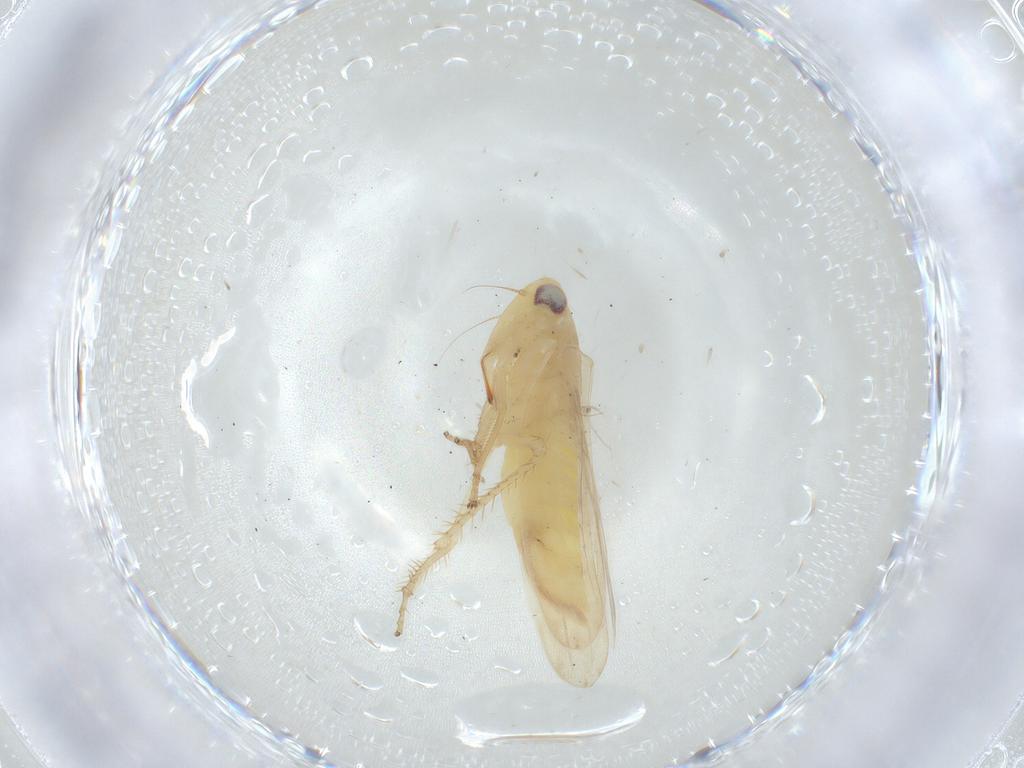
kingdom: Animalia
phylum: Arthropoda
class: Insecta
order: Hemiptera
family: Cicadellidae
